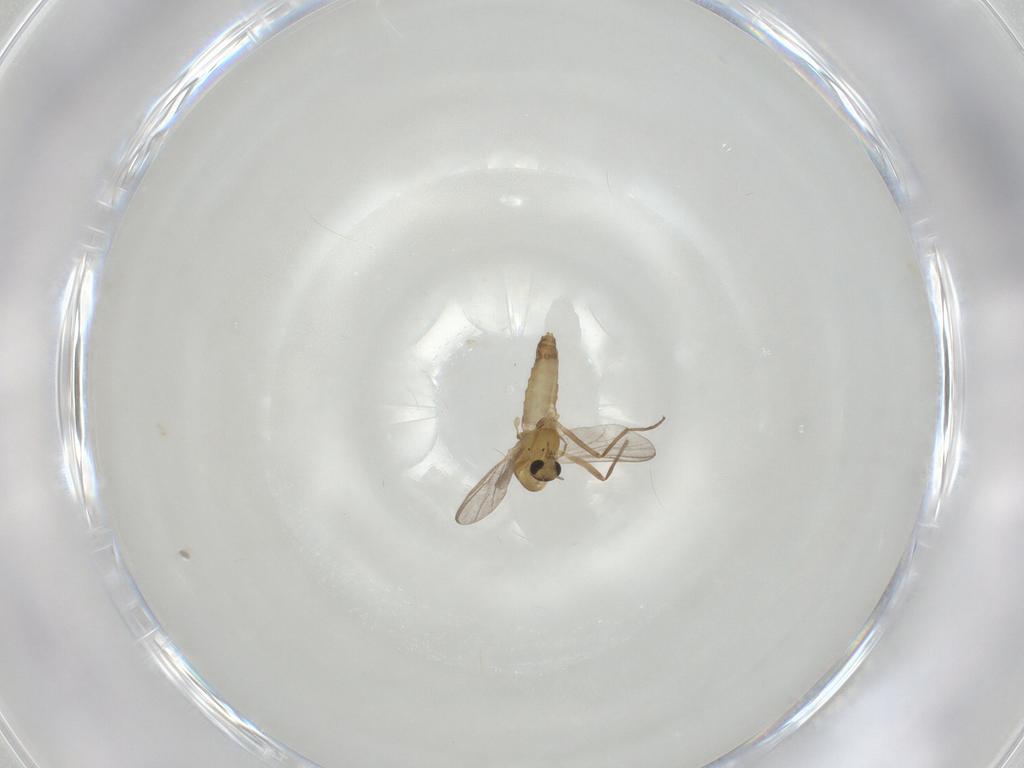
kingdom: Animalia
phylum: Arthropoda
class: Insecta
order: Diptera
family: Chironomidae
